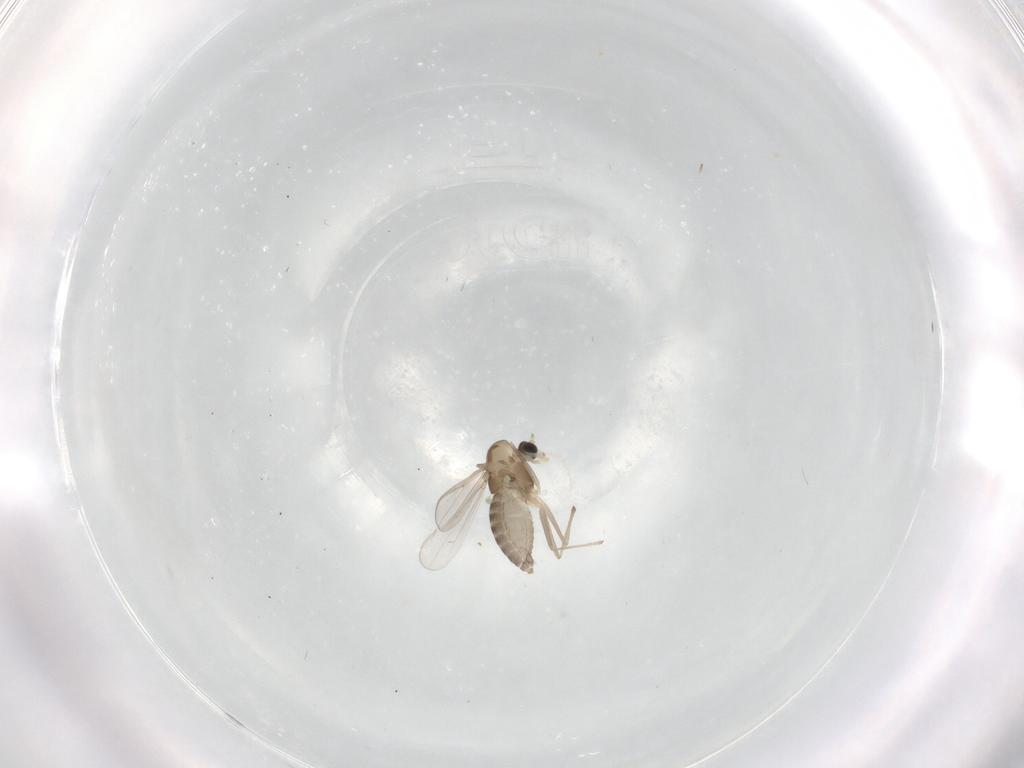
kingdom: Animalia
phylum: Arthropoda
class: Insecta
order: Diptera
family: Chironomidae
